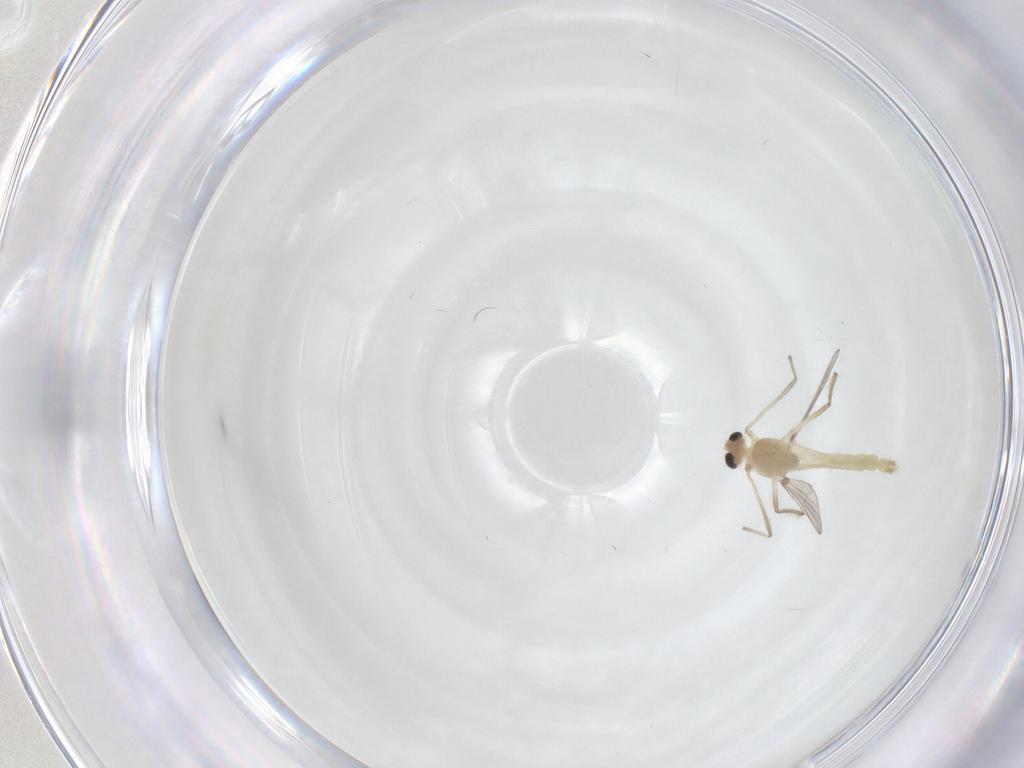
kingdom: Animalia
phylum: Arthropoda
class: Insecta
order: Diptera
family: Chironomidae
